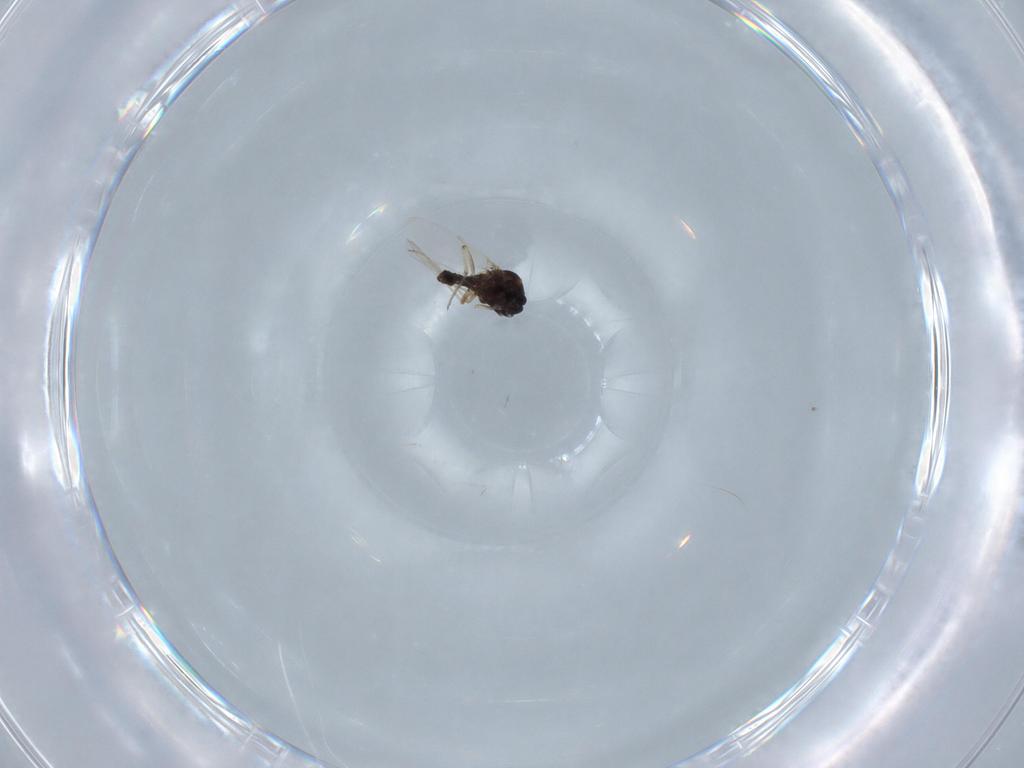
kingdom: Animalia
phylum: Arthropoda
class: Insecta
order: Diptera
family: Ceratopogonidae
